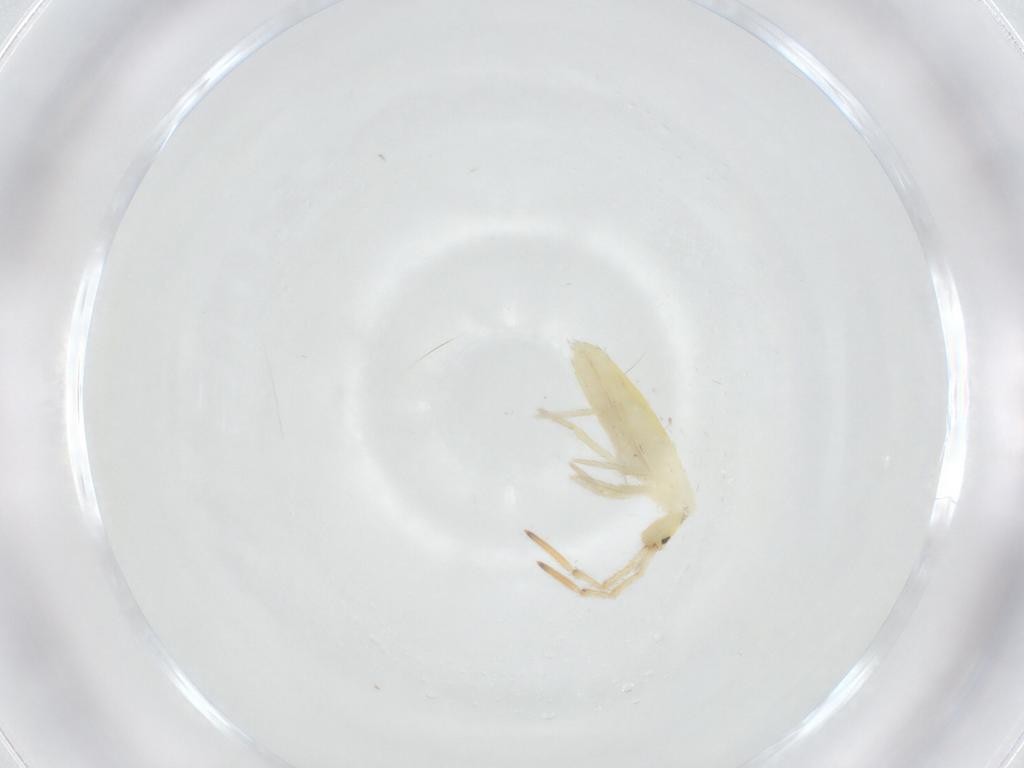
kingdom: Animalia
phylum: Arthropoda
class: Collembola
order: Entomobryomorpha
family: Entomobryidae
